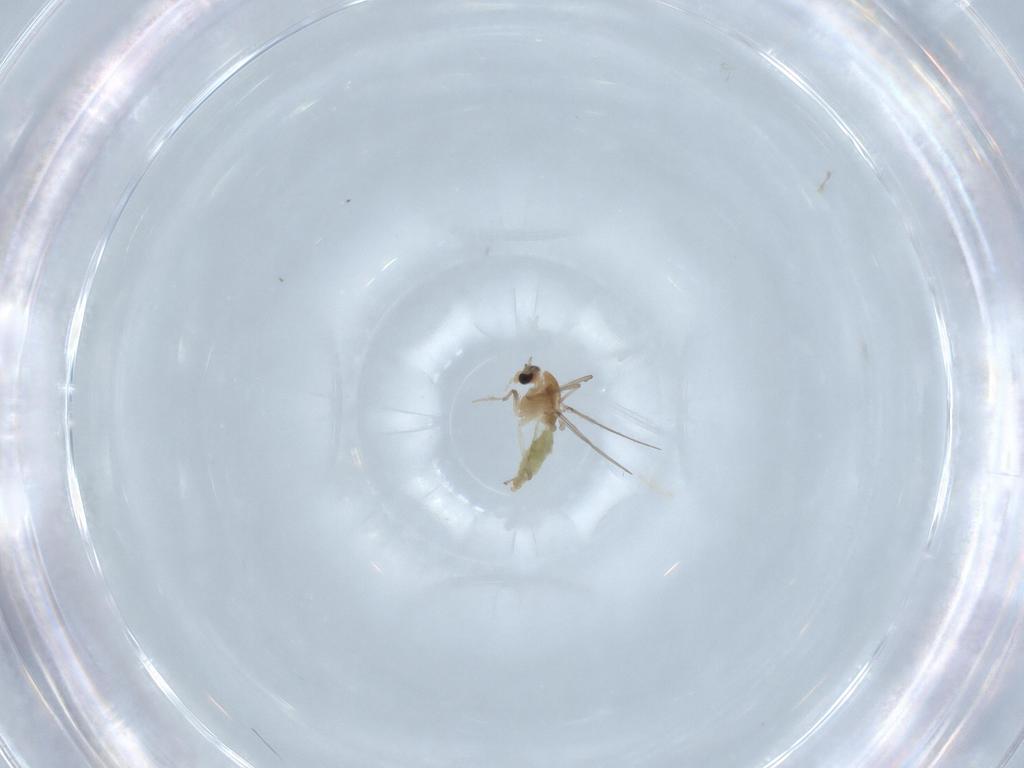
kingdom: Animalia
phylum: Arthropoda
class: Insecta
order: Diptera
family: Chironomidae
